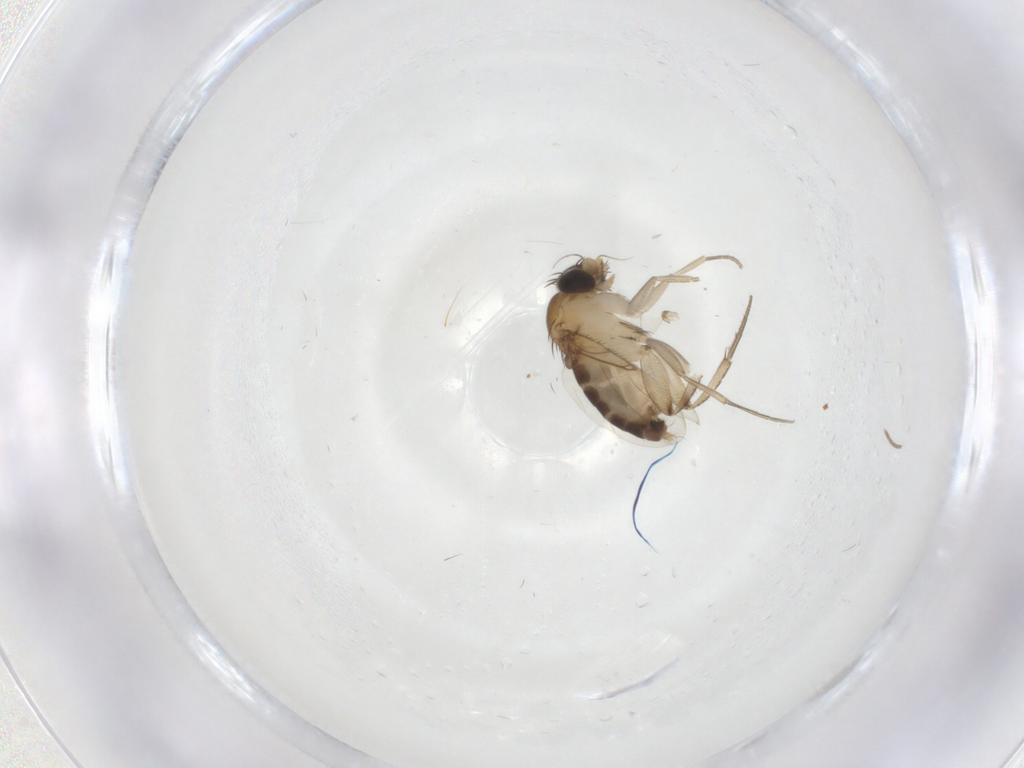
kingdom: Animalia
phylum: Arthropoda
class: Insecta
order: Diptera
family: Phoridae
